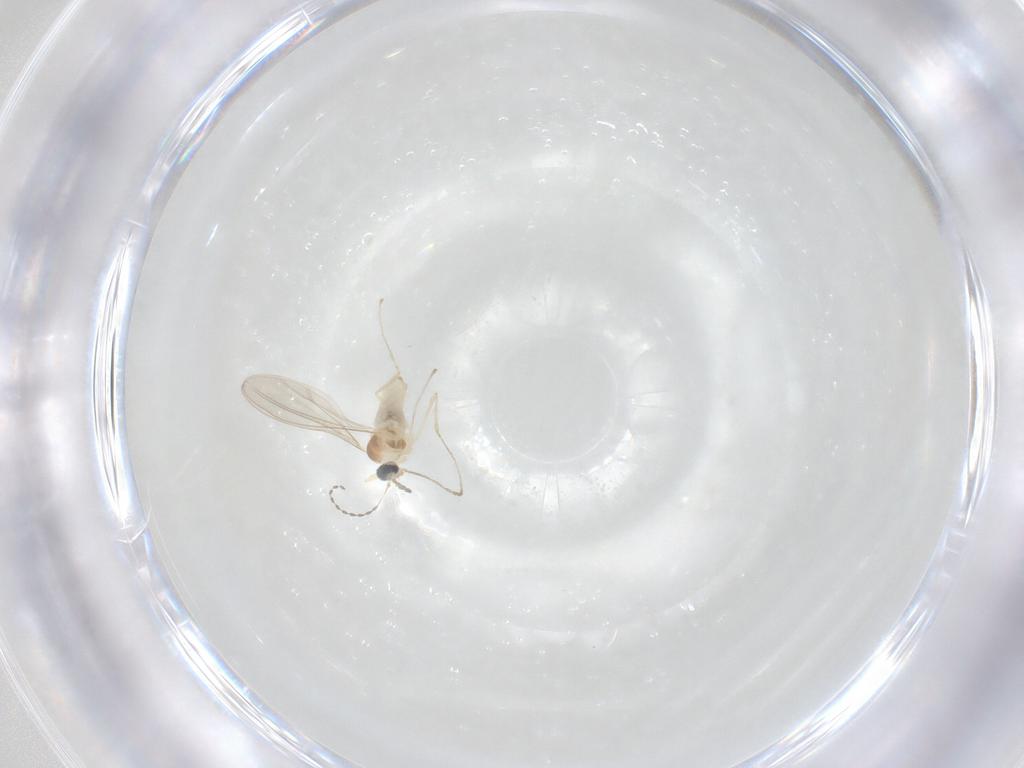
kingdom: Animalia
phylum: Arthropoda
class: Insecta
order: Diptera
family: Cecidomyiidae
